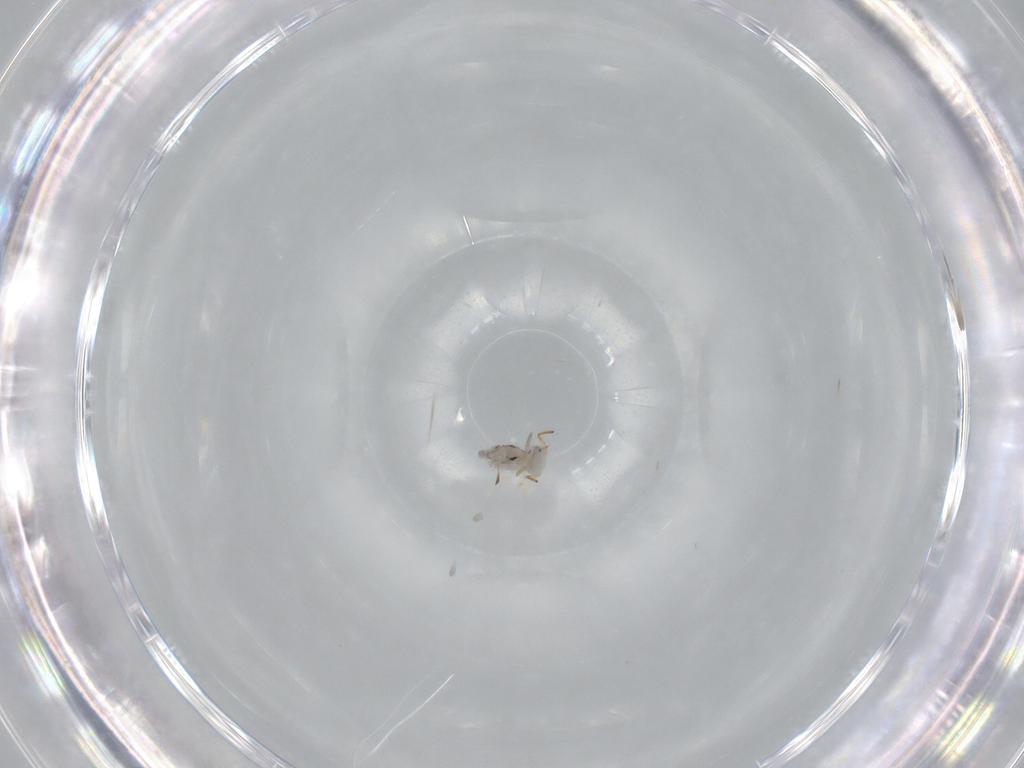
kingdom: Animalia
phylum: Arthropoda
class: Collembola
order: Symphypleona
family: Bourletiellidae
